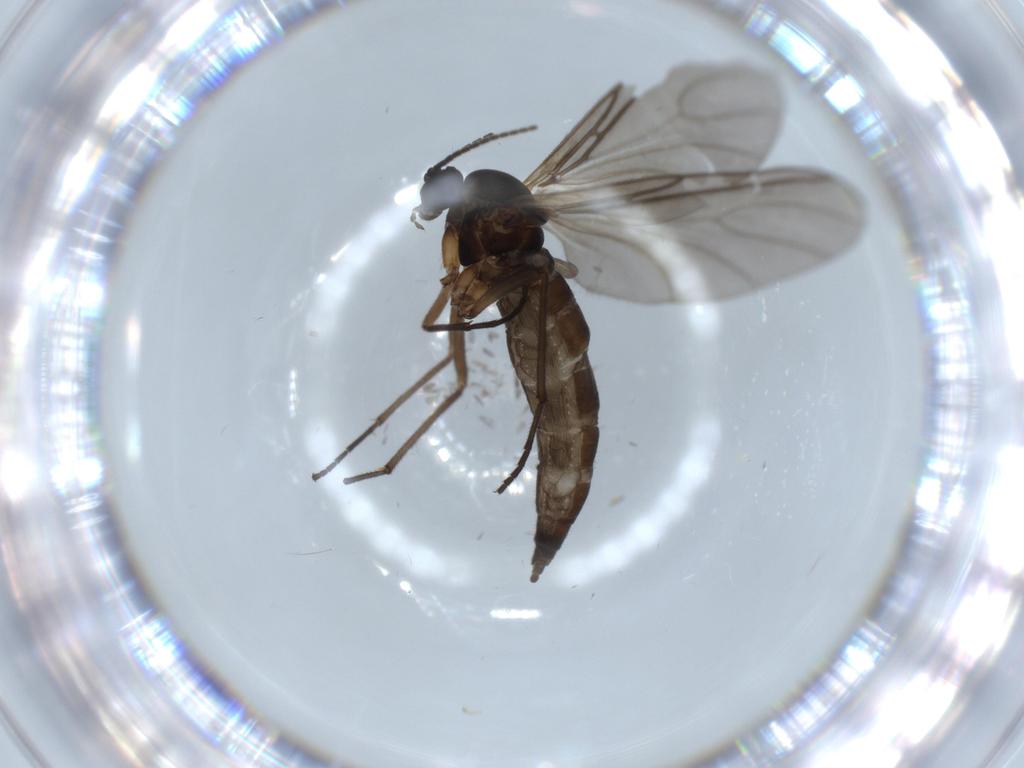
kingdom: Animalia
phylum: Arthropoda
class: Insecta
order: Diptera
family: Sciaridae
